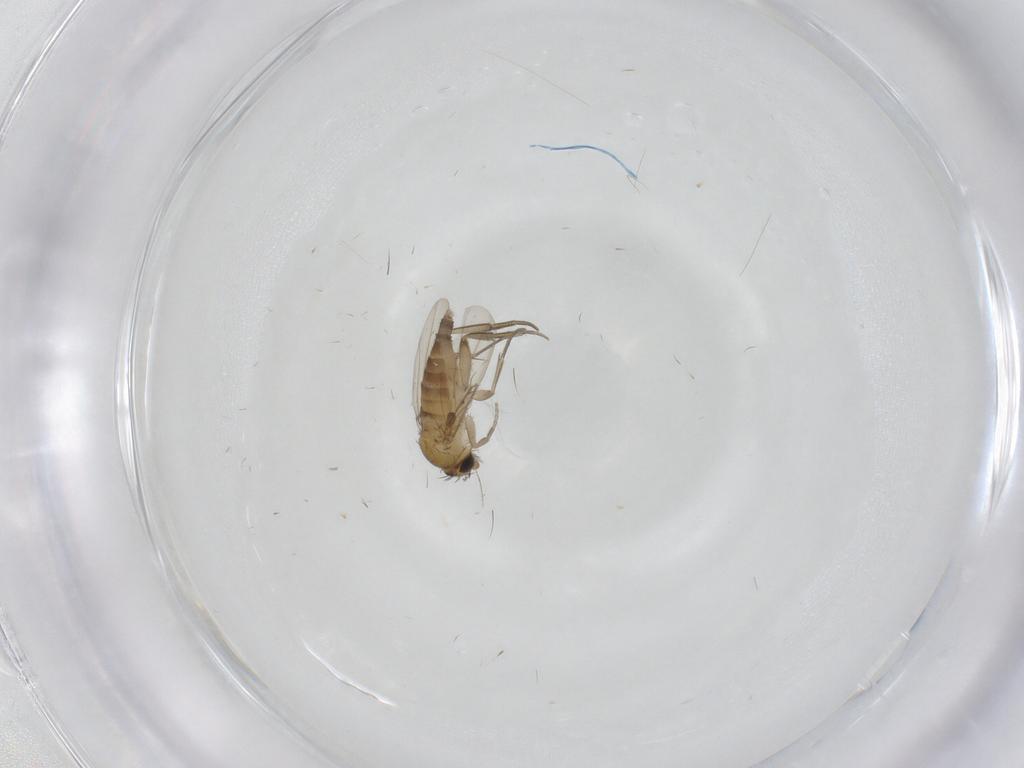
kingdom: Animalia
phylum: Arthropoda
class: Insecta
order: Diptera
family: Phoridae
